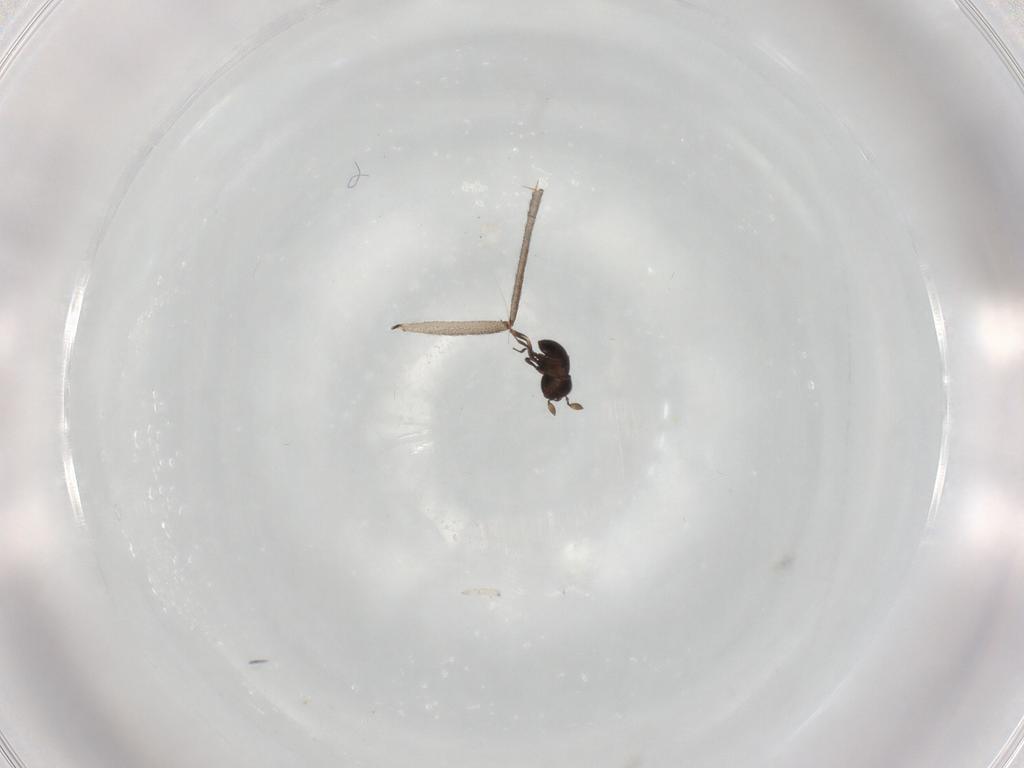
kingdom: Animalia
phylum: Arthropoda
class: Insecta
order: Hymenoptera
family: Scelionidae
